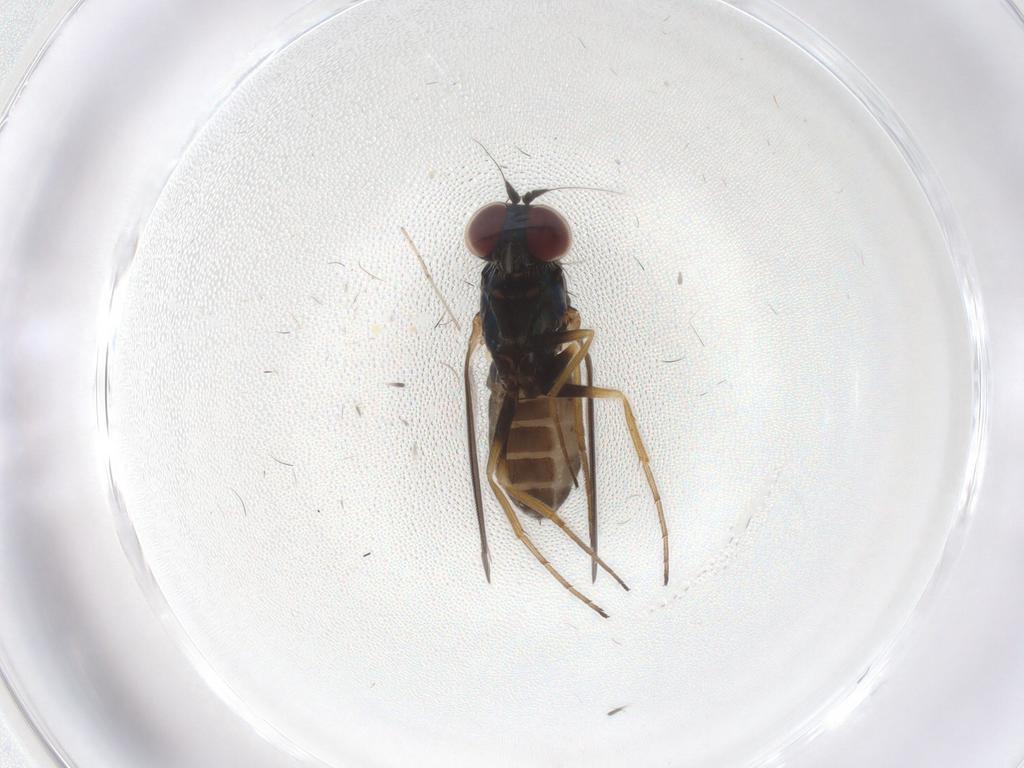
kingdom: Animalia
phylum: Arthropoda
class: Insecta
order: Diptera
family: Dolichopodidae
